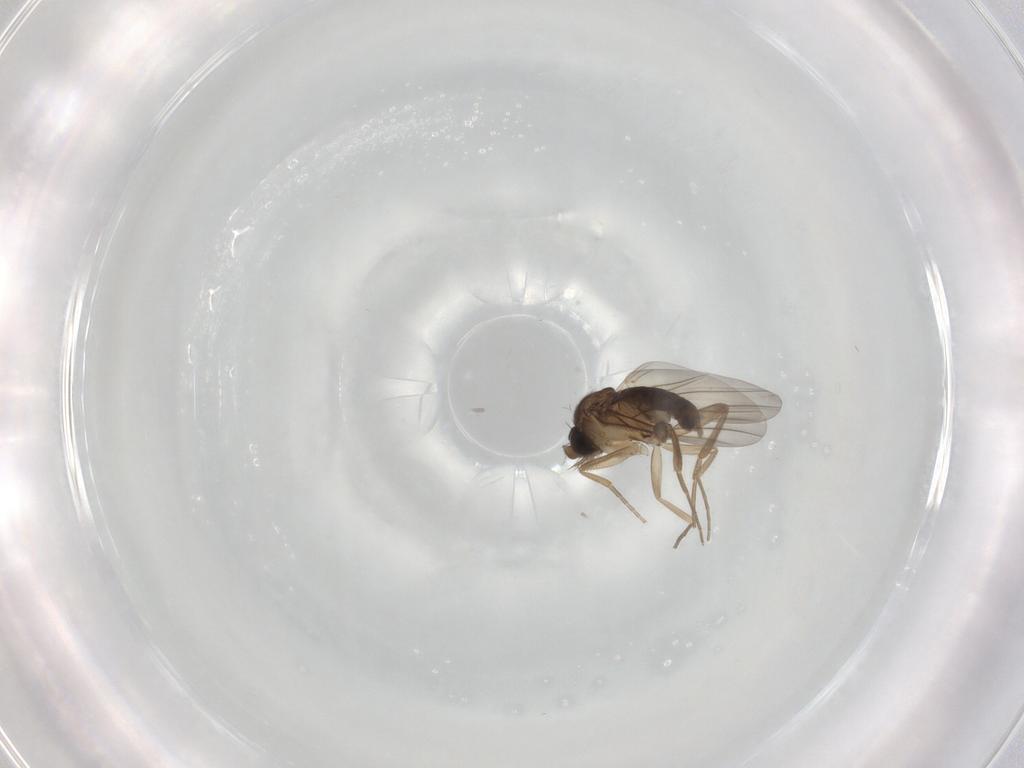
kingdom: Animalia
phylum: Arthropoda
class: Insecta
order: Diptera
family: Phoridae
